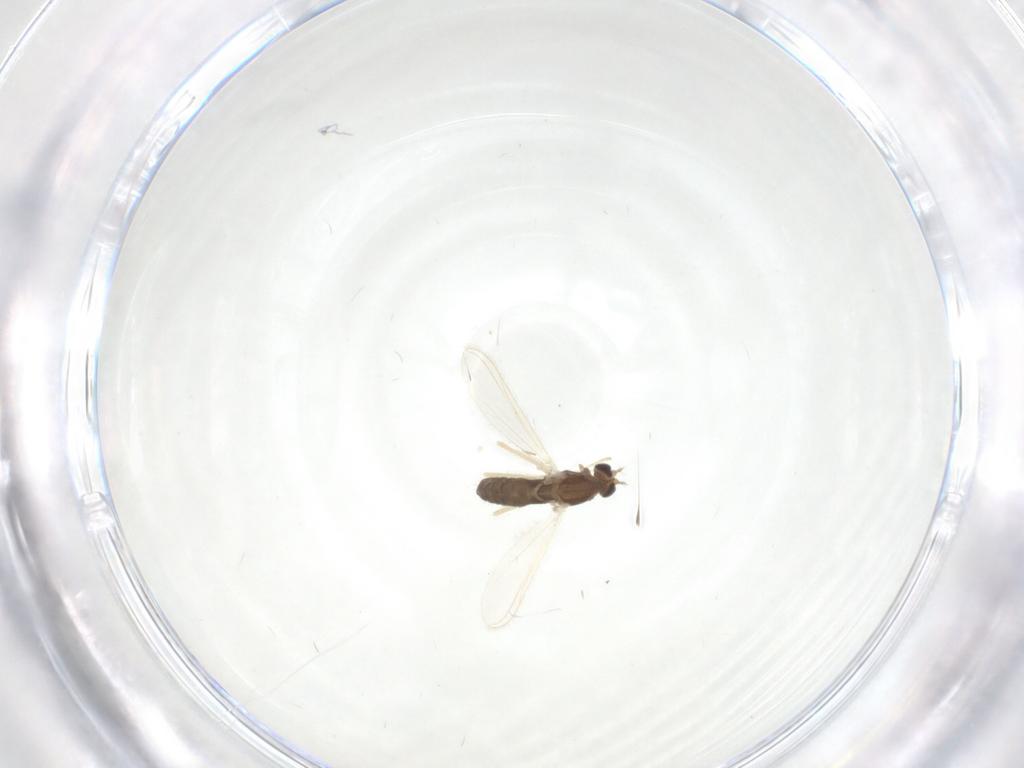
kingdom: Animalia
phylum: Arthropoda
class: Insecta
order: Diptera
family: Chironomidae
